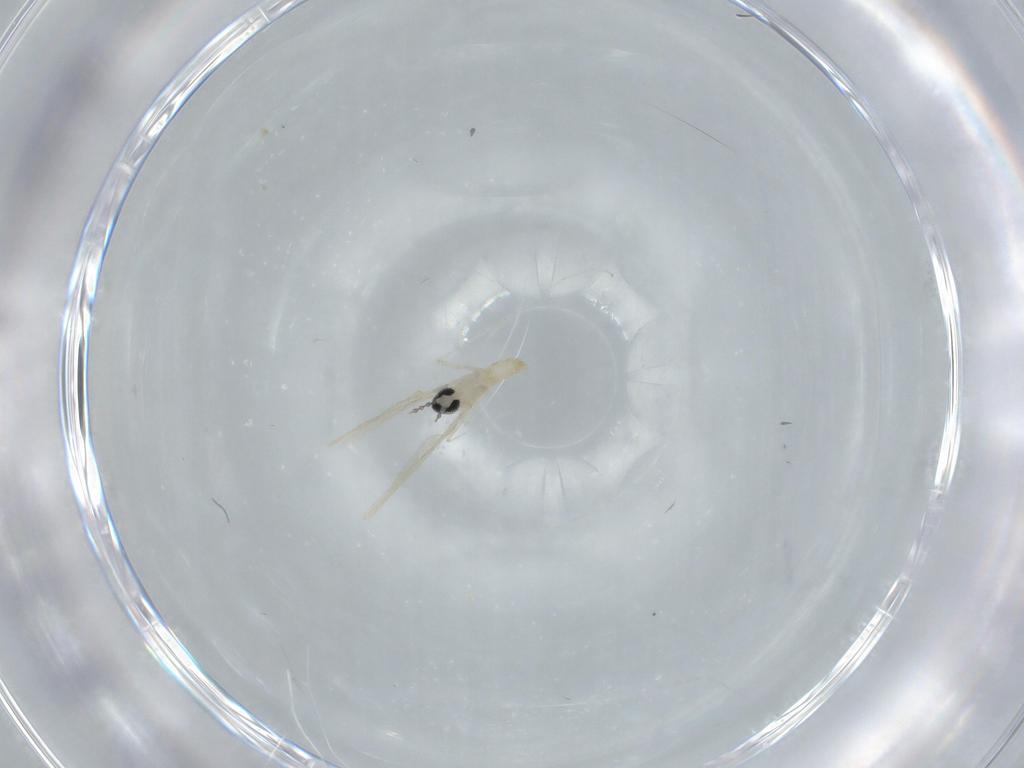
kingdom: Animalia
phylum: Arthropoda
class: Insecta
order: Diptera
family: Cecidomyiidae
